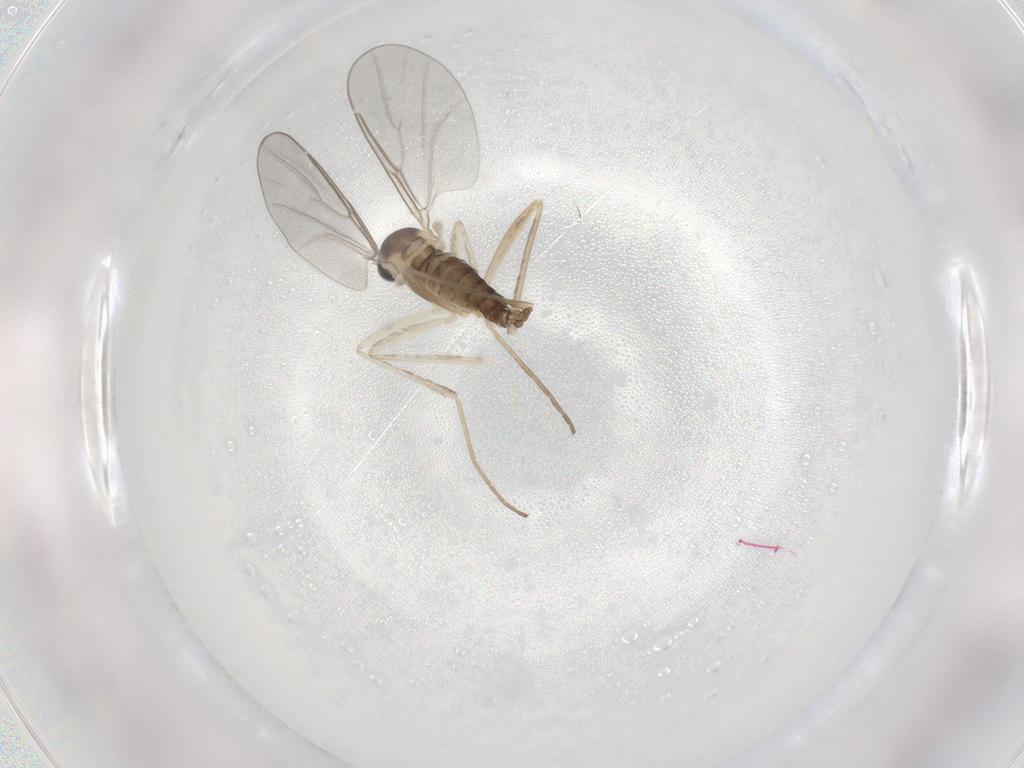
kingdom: Animalia
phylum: Arthropoda
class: Insecta
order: Diptera
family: Cecidomyiidae
